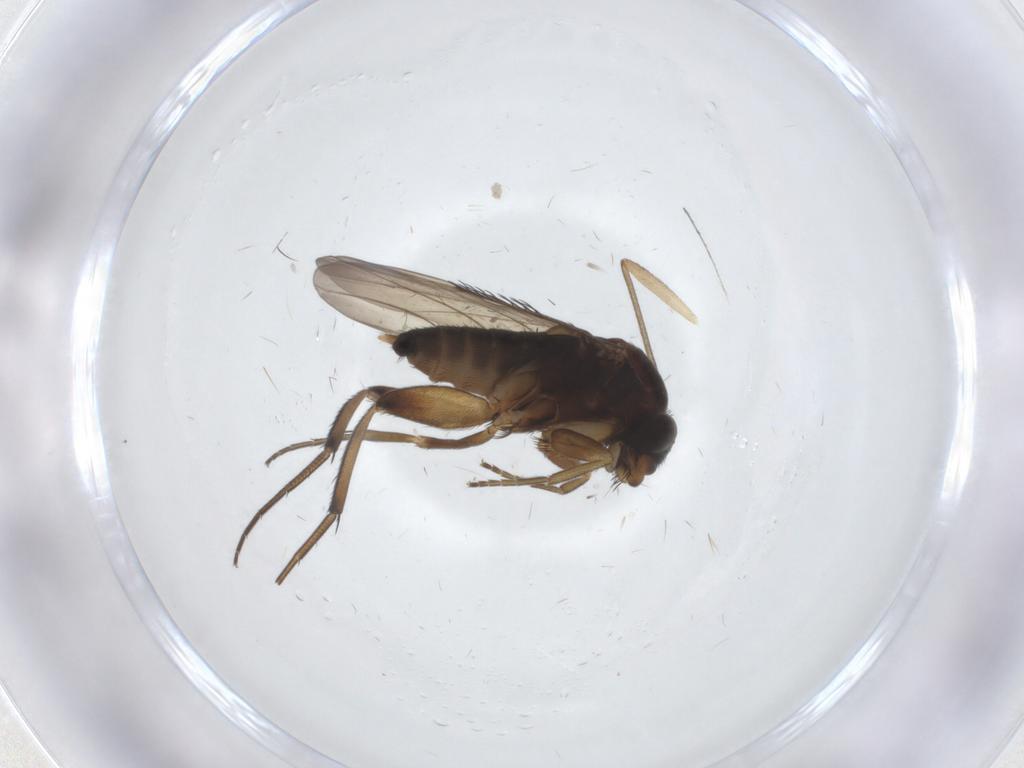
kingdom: Animalia
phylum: Arthropoda
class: Insecta
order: Diptera
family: Phoridae
